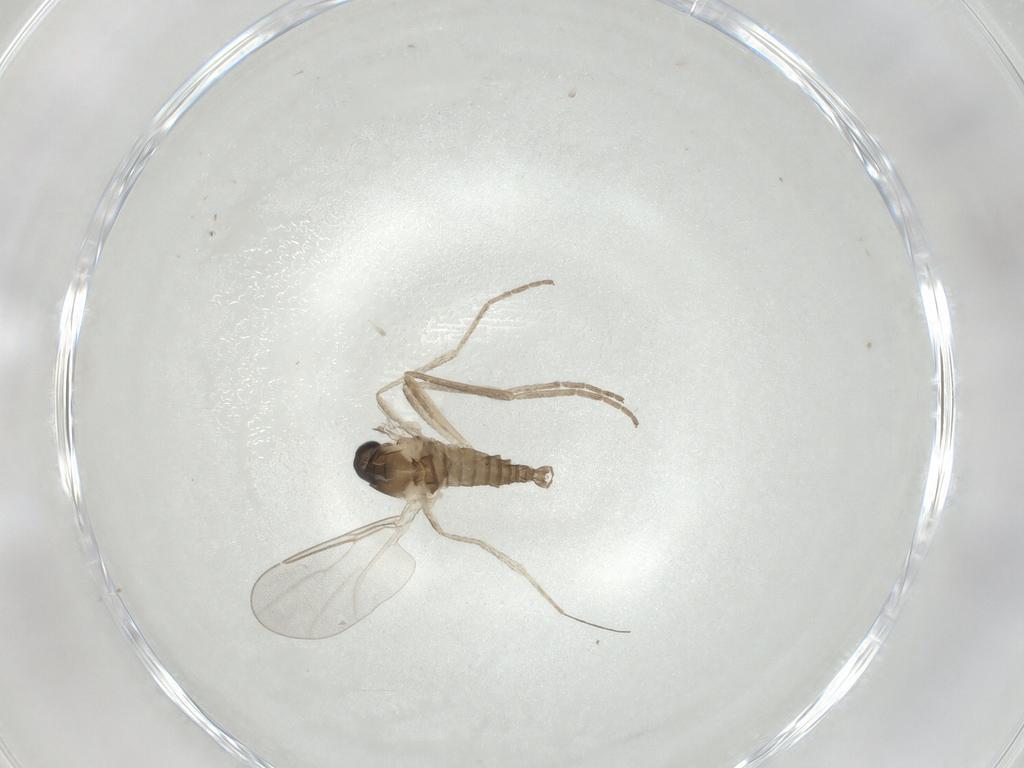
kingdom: Animalia
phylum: Arthropoda
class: Insecta
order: Diptera
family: Cecidomyiidae
